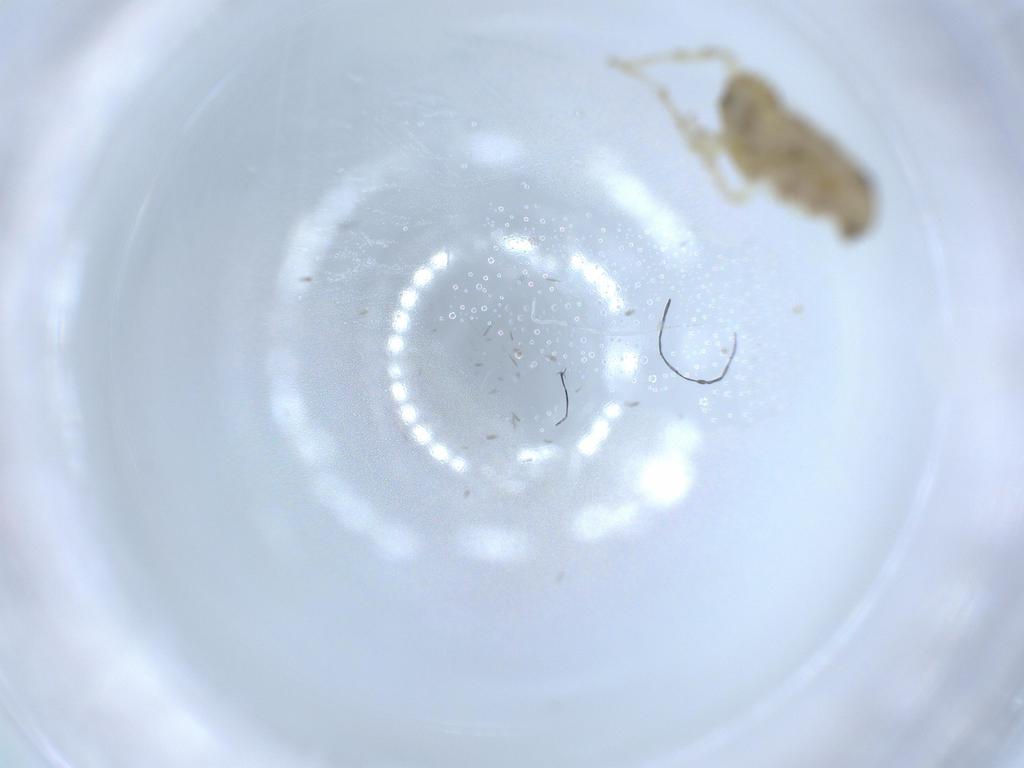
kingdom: Animalia
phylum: Arthropoda
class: Insecta
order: Blattodea
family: Ectobiidae
